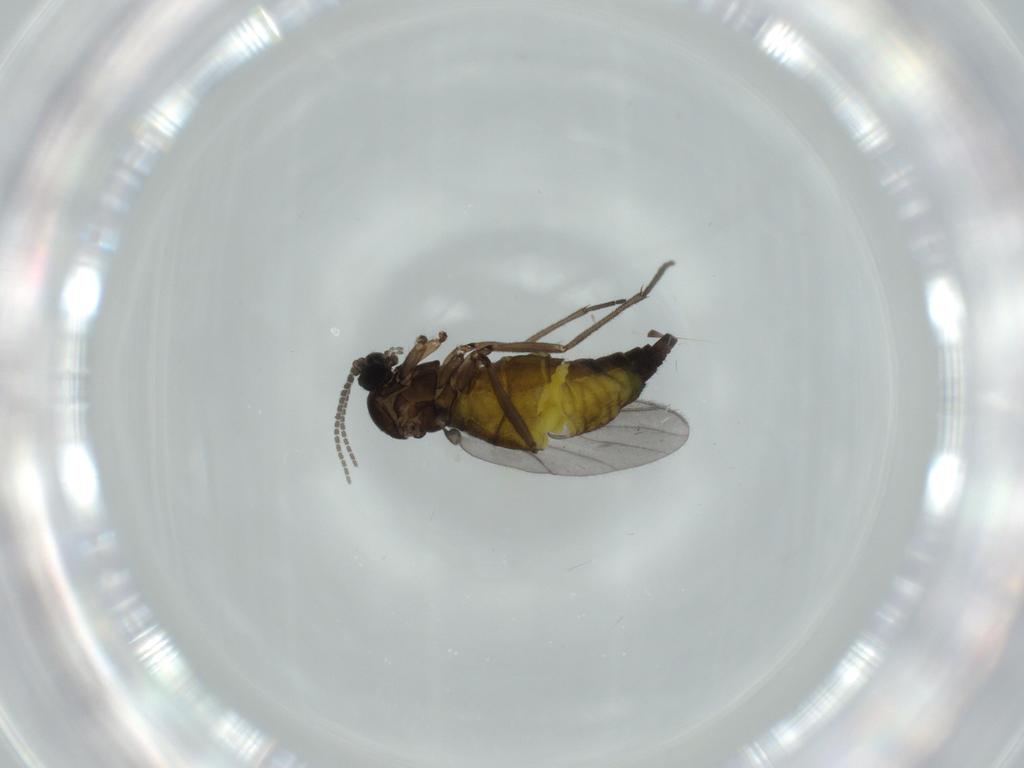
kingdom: Animalia
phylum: Arthropoda
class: Insecta
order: Diptera
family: Sciaridae
